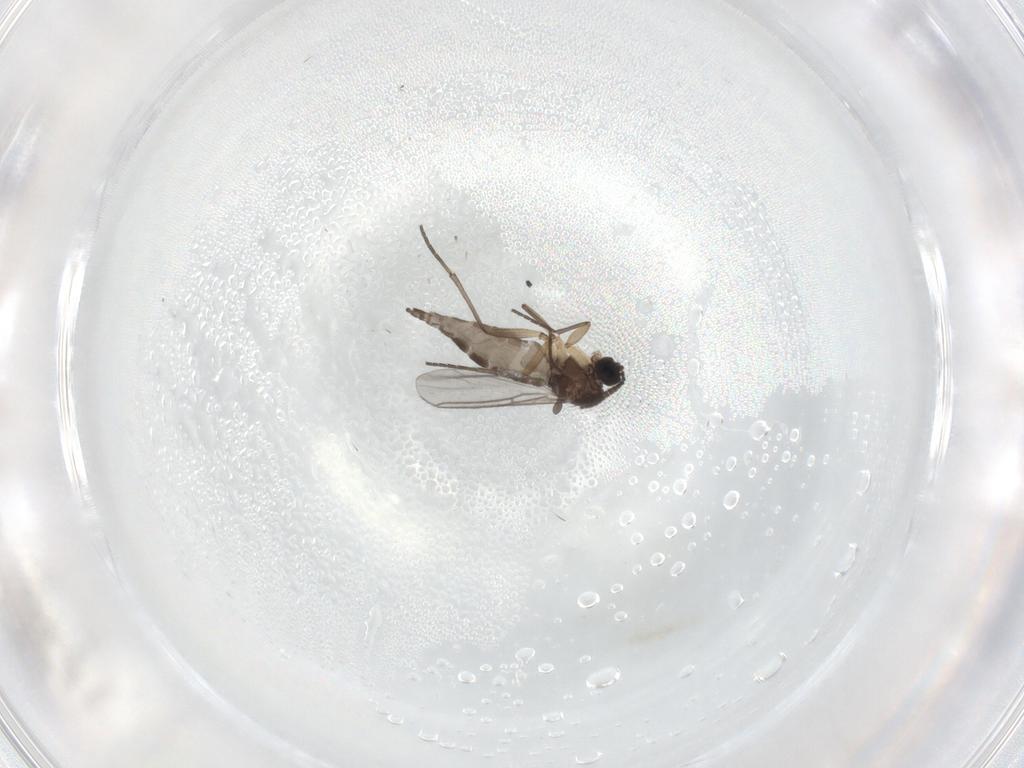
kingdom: Animalia
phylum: Arthropoda
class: Insecta
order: Diptera
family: Sciaridae
